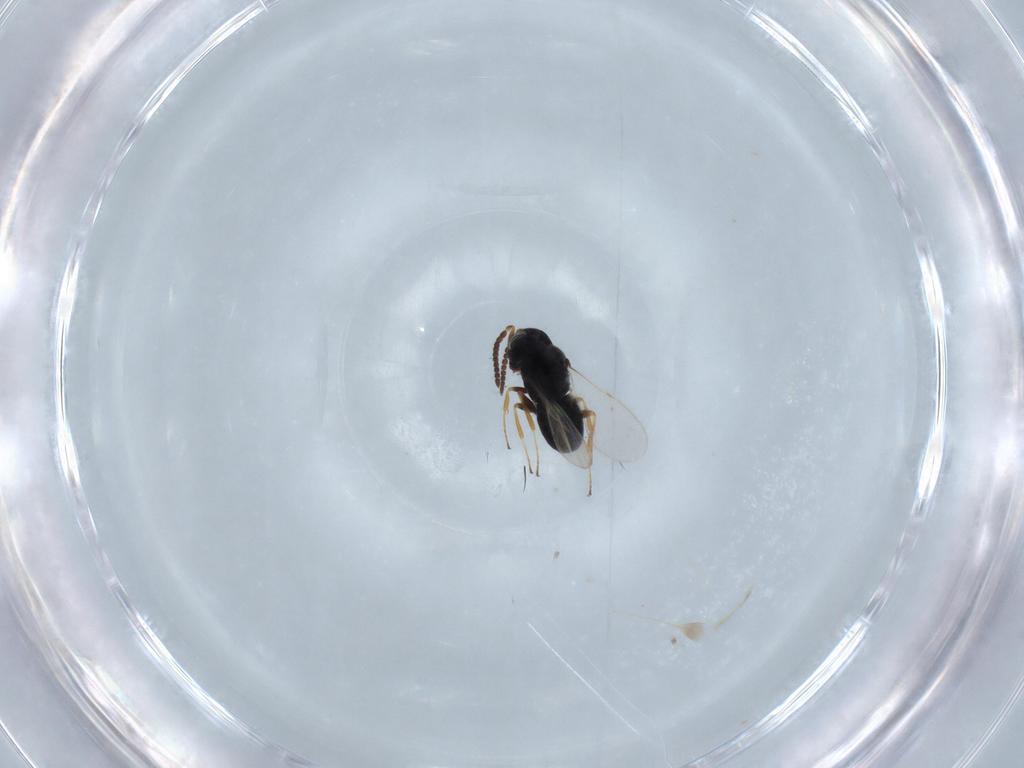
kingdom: Animalia
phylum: Arthropoda
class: Insecta
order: Hymenoptera
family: Scelionidae
